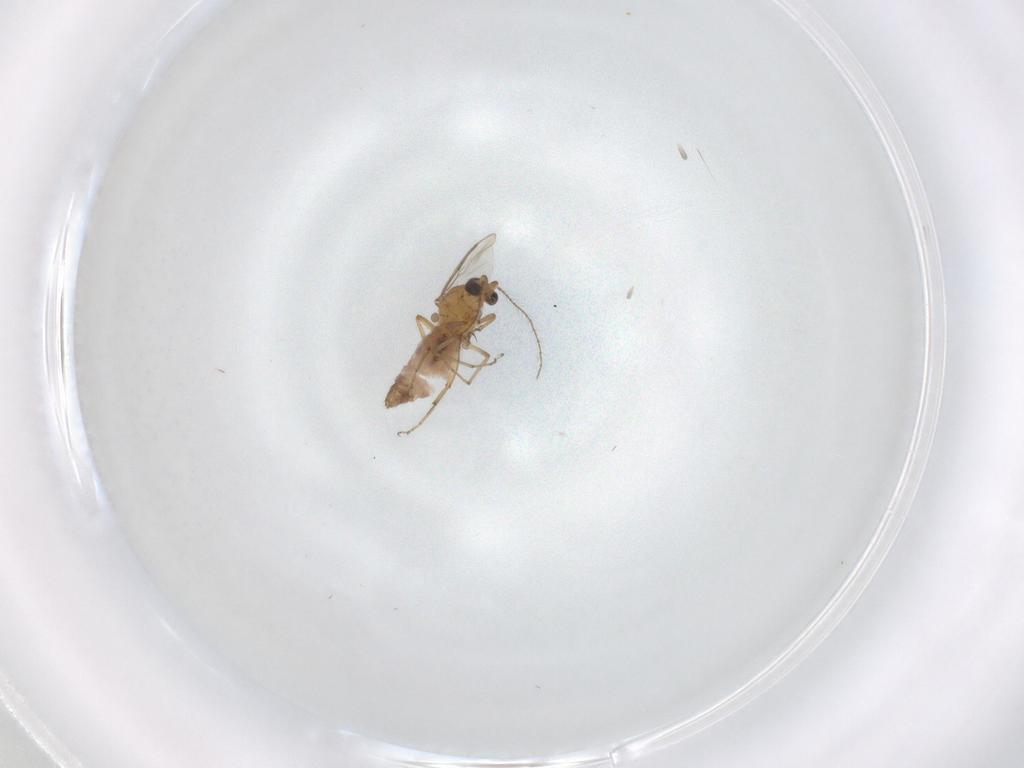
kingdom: Animalia
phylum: Arthropoda
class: Insecta
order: Diptera
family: Ceratopogonidae
